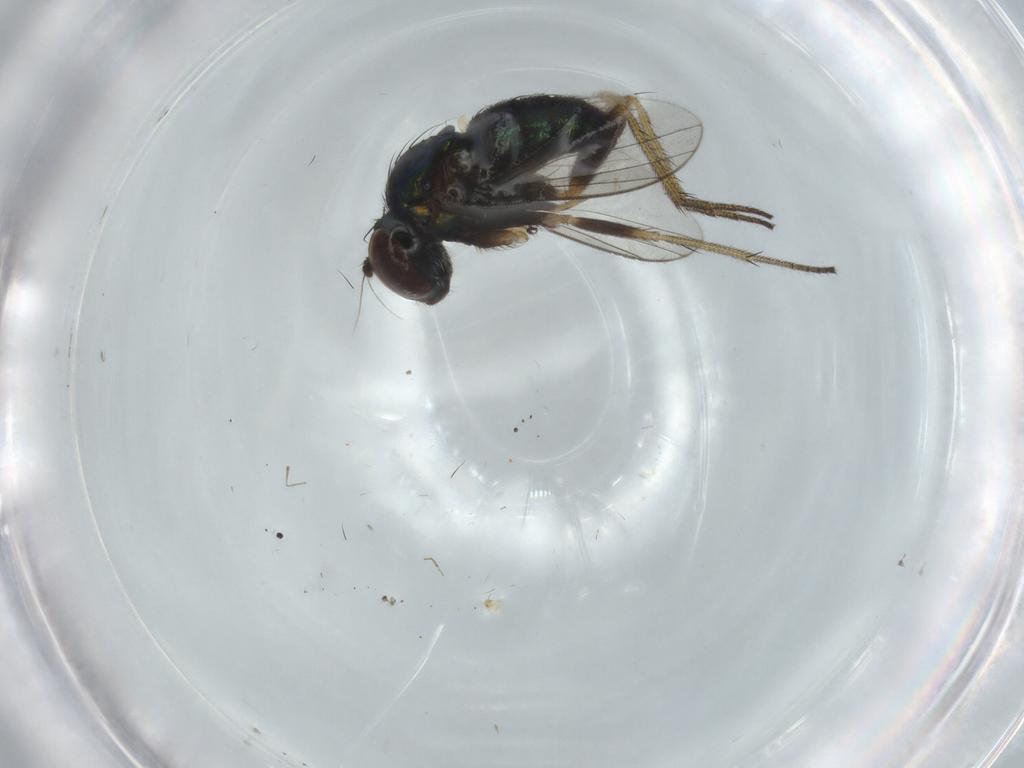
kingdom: Animalia
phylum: Arthropoda
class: Insecta
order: Diptera
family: Dolichopodidae
